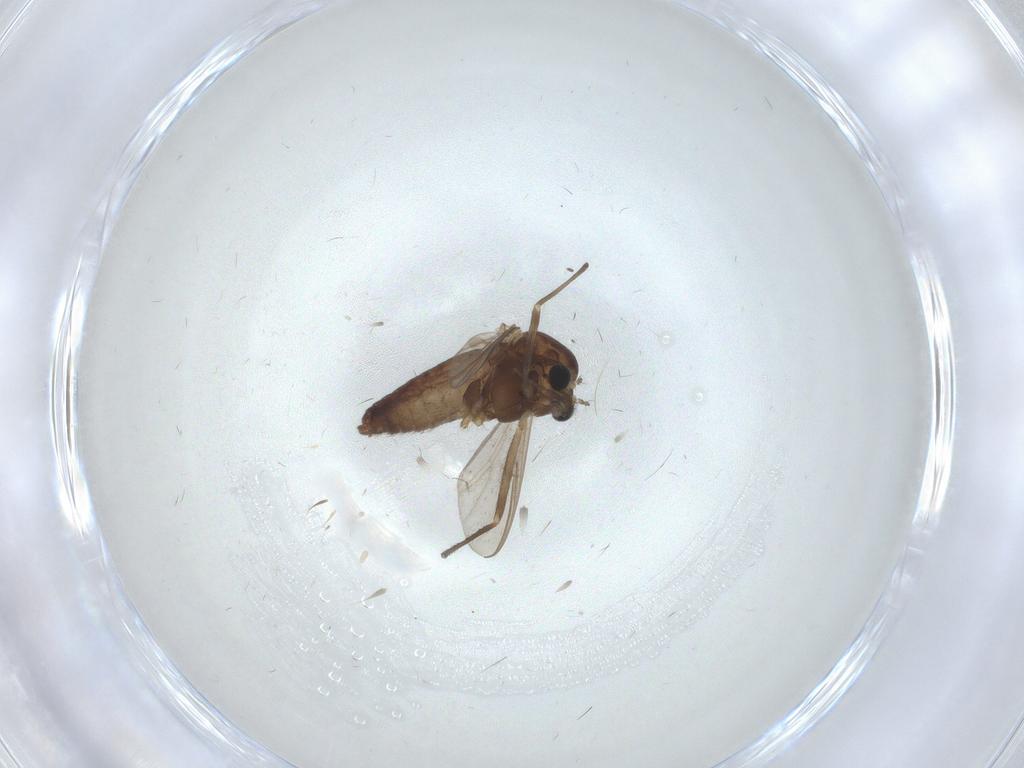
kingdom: Animalia
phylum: Arthropoda
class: Insecta
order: Diptera
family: Chironomidae
